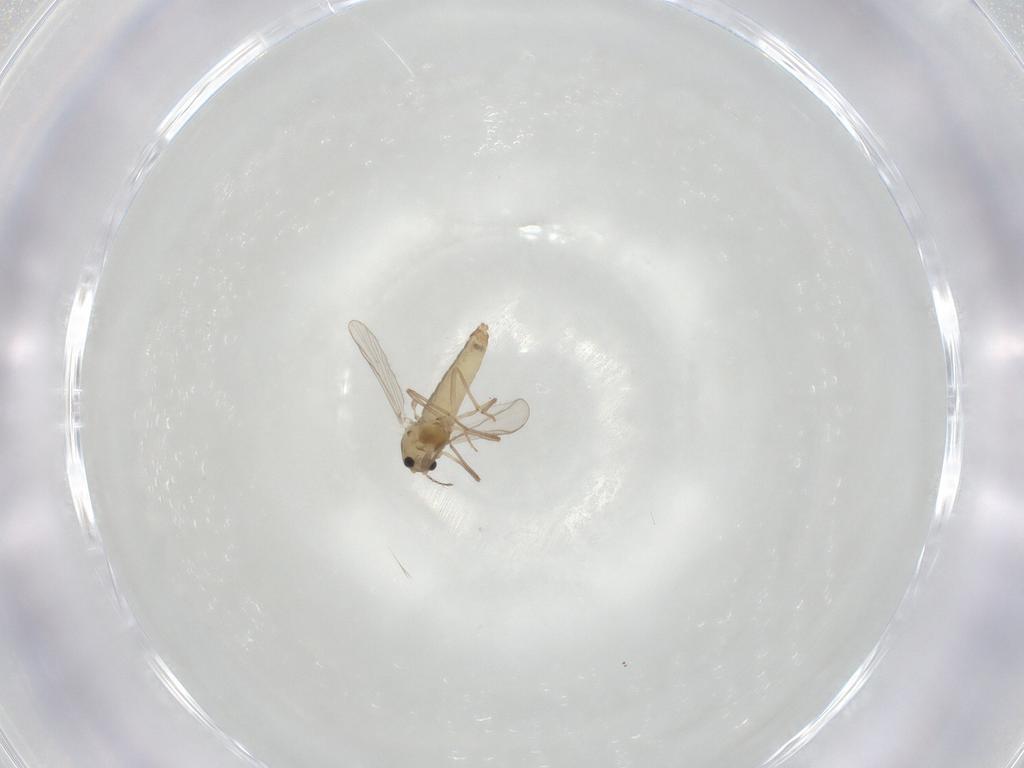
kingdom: Animalia
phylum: Arthropoda
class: Insecta
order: Diptera
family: Chironomidae
